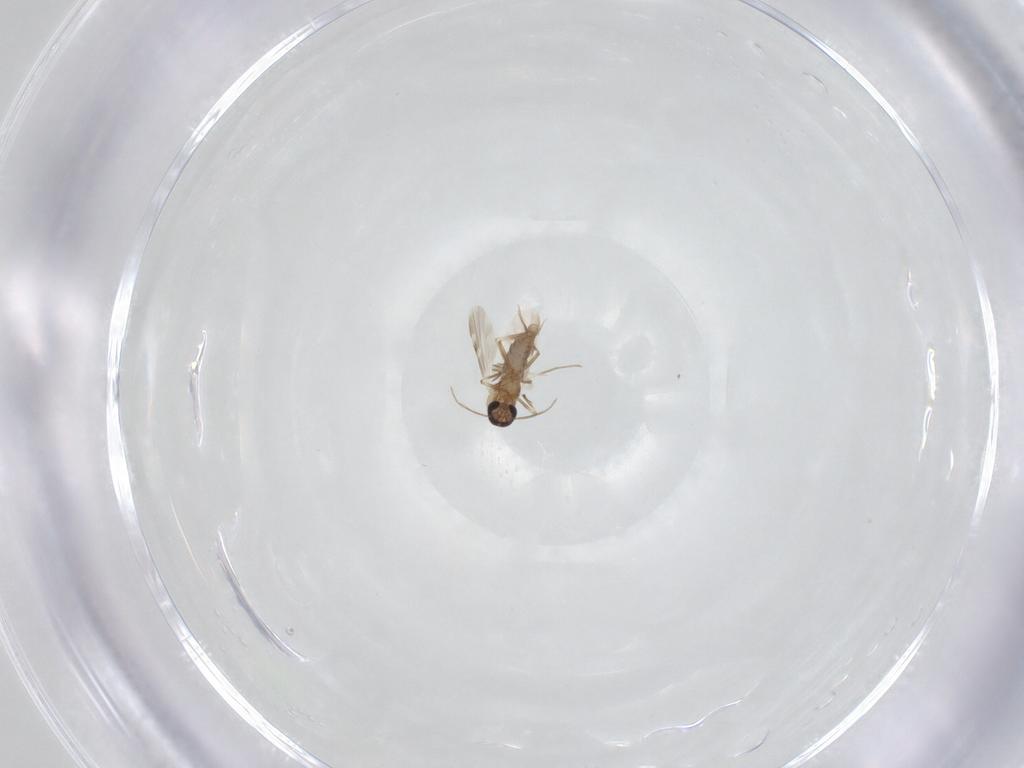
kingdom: Animalia
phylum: Arthropoda
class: Insecta
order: Diptera
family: Ceratopogonidae
